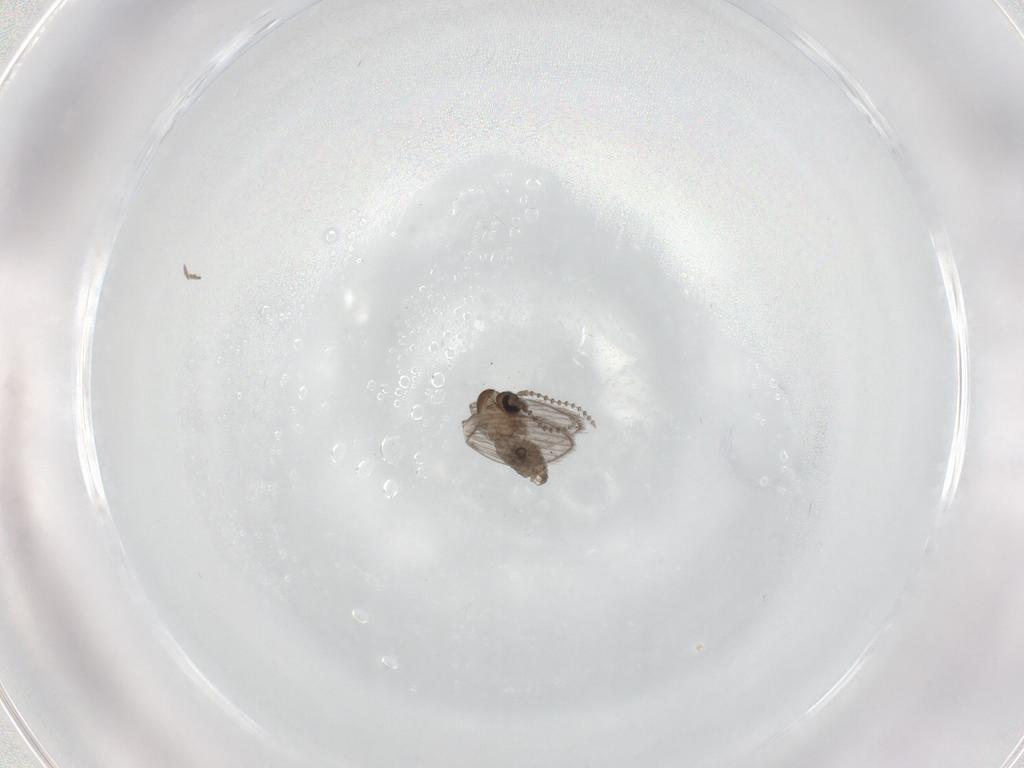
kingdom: Animalia
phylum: Arthropoda
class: Insecta
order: Diptera
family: Psychodidae
